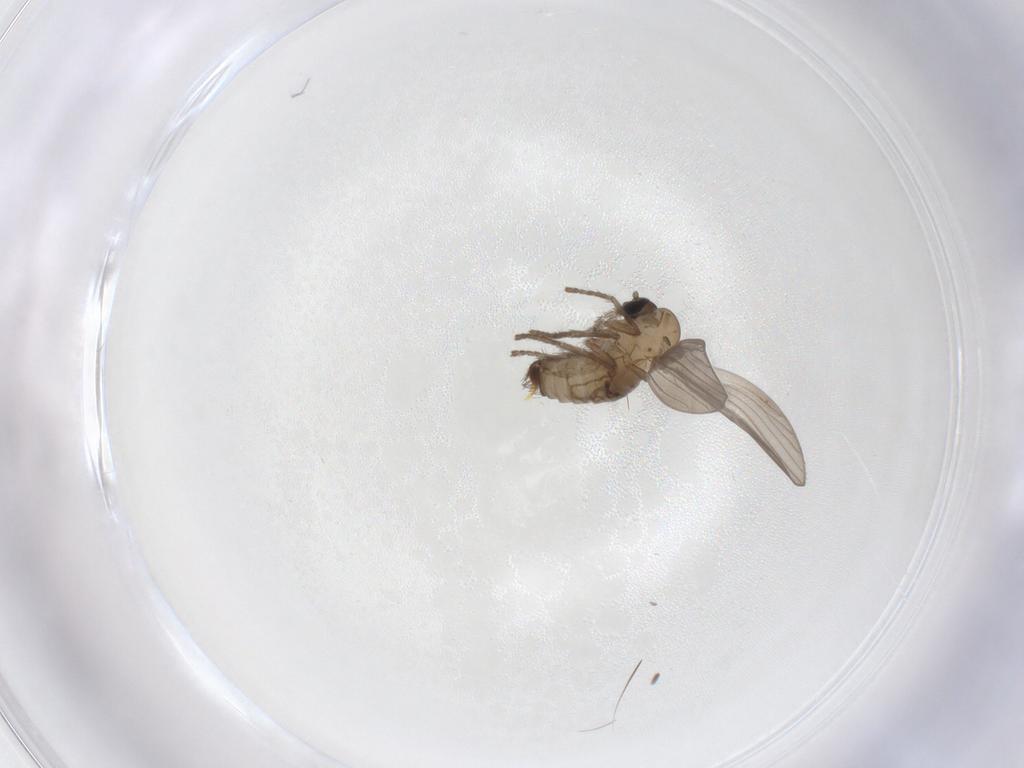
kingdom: Animalia
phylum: Arthropoda
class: Insecta
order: Diptera
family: Psychodidae
